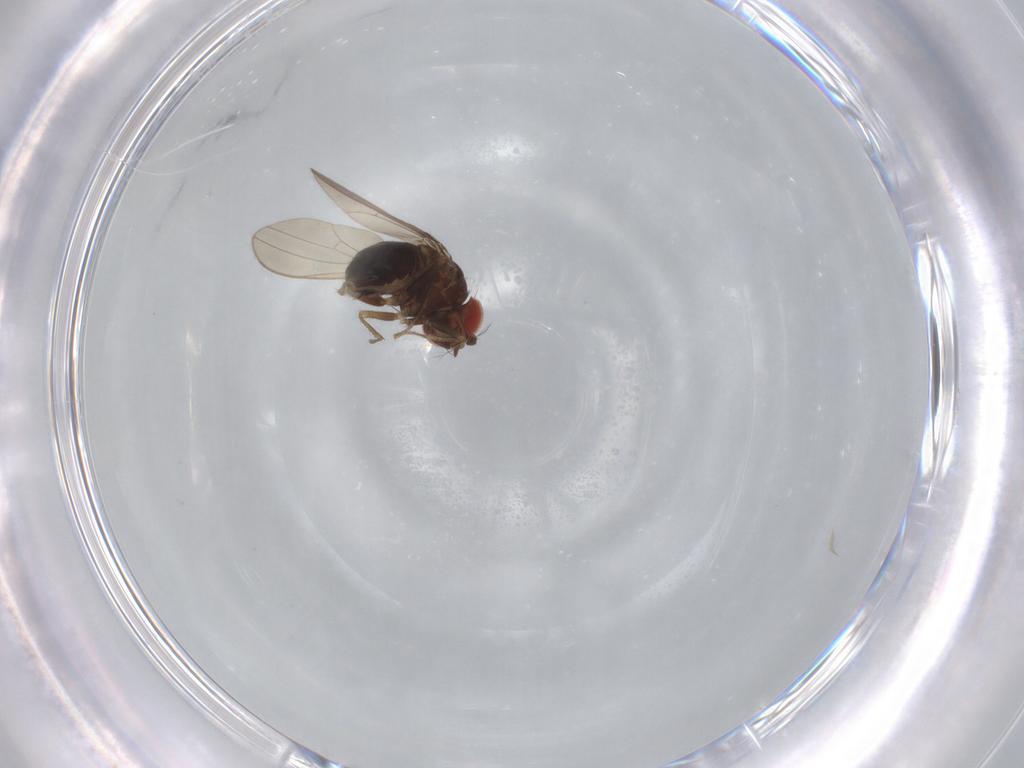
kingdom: Animalia
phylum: Arthropoda
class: Insecta
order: Diptera
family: Drosophilidae
